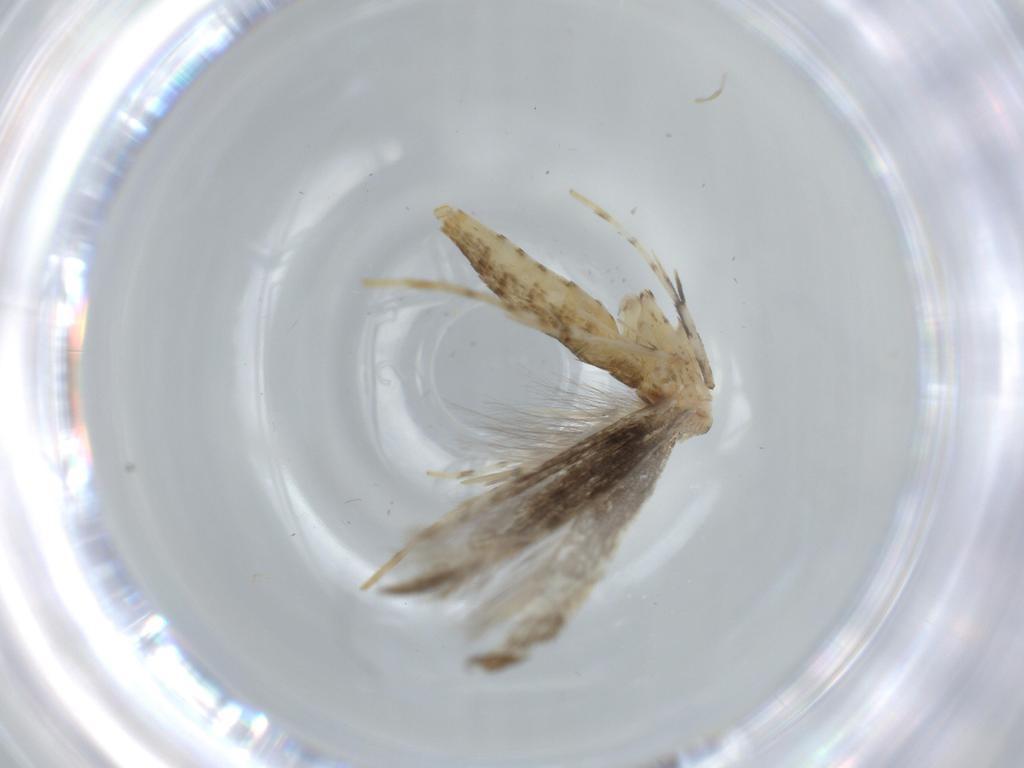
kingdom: Animalia
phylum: Arthropoda
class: Insecta
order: Lepidoptera
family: Gracillariidae
